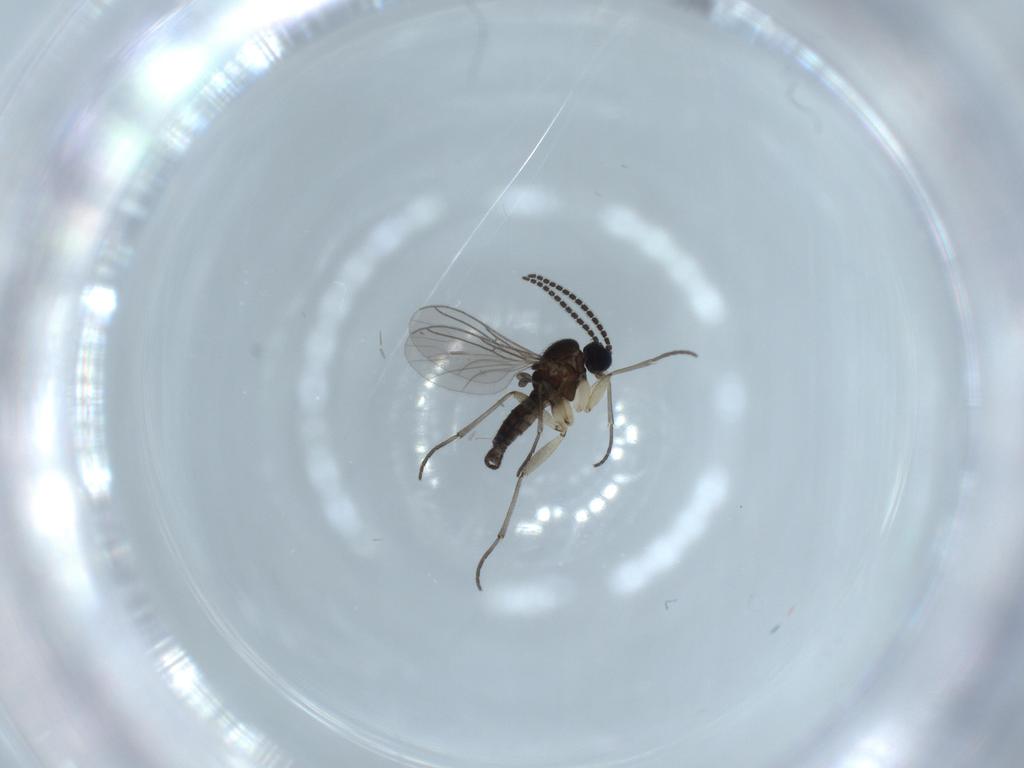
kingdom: Animalia
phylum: Arthropoda
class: Insecta
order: Diptera
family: Sciaridae
